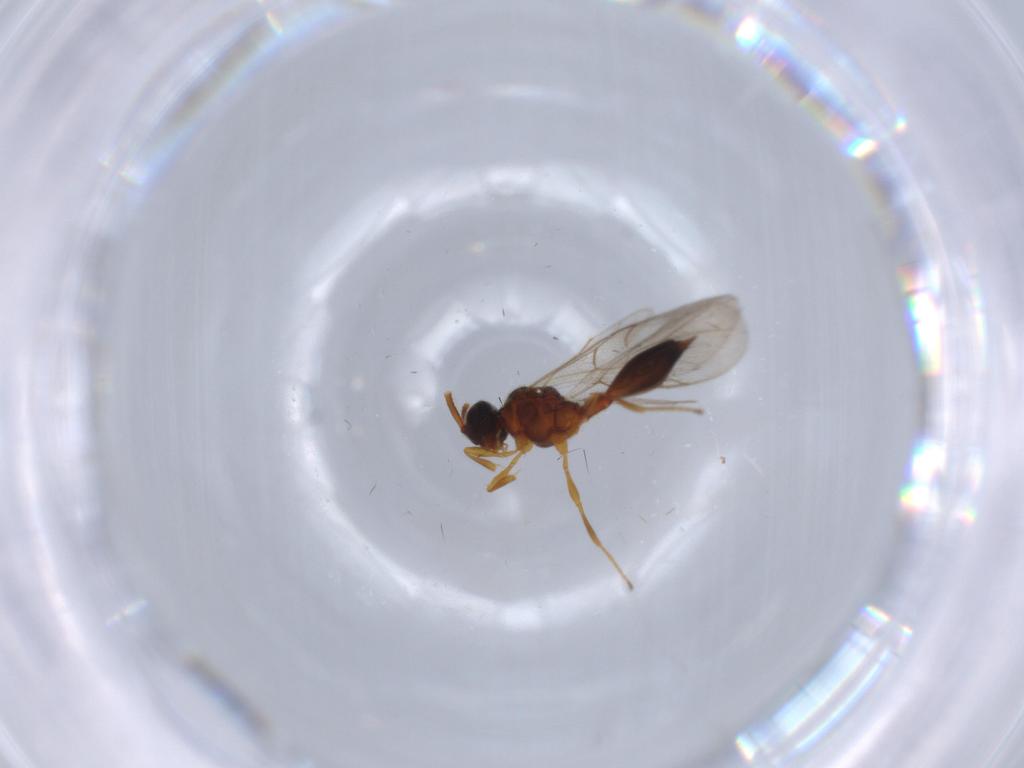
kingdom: Animalia
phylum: Arthropoda
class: Insecta
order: Hymenoptera
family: Diapriidae
